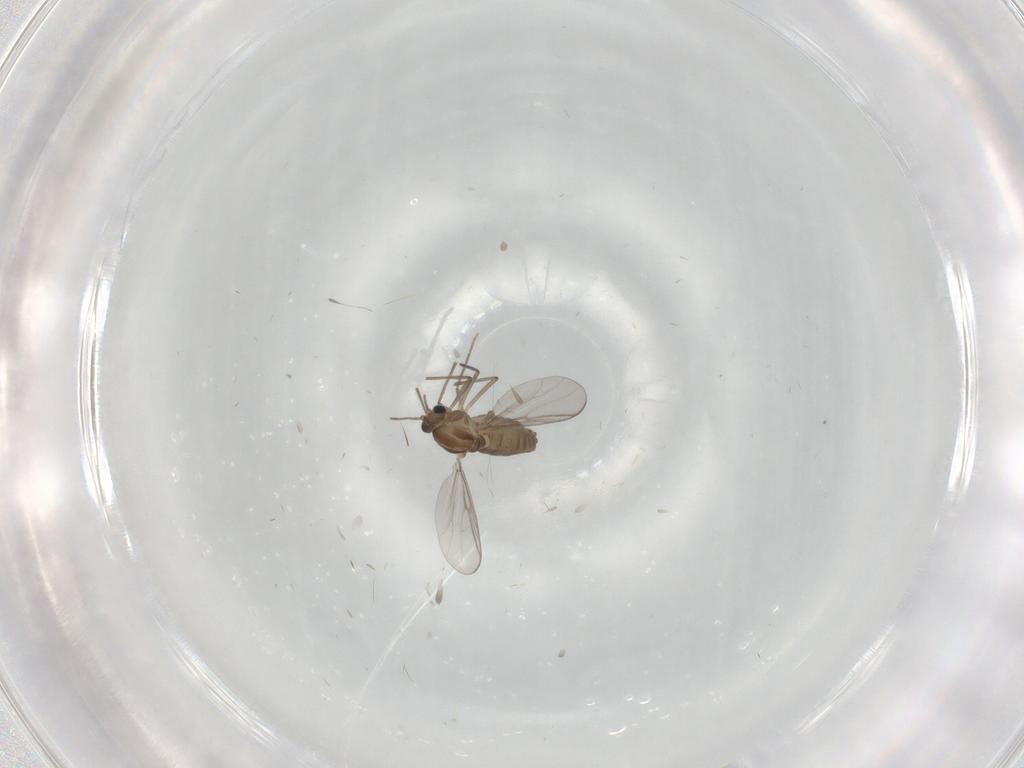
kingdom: Animalia
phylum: Arthropoda
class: Insecta
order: Diptera
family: Chironomidae
